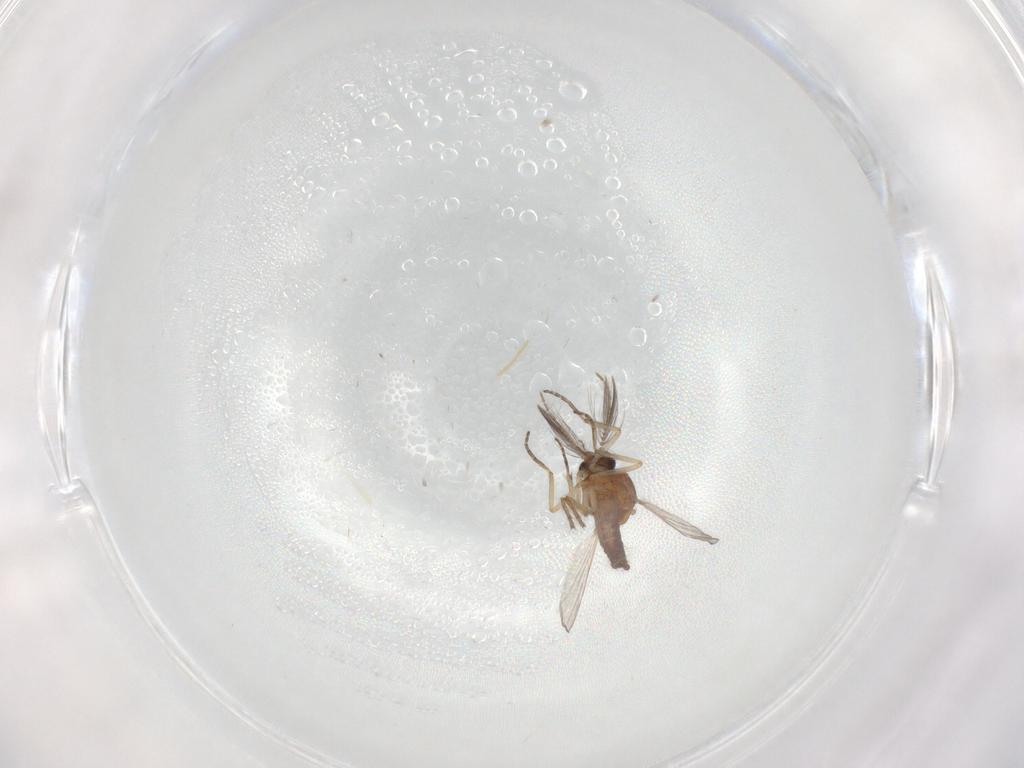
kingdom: Animalia
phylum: Arthropoda
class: Insecta
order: Diptera
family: Ceratopogonidae
